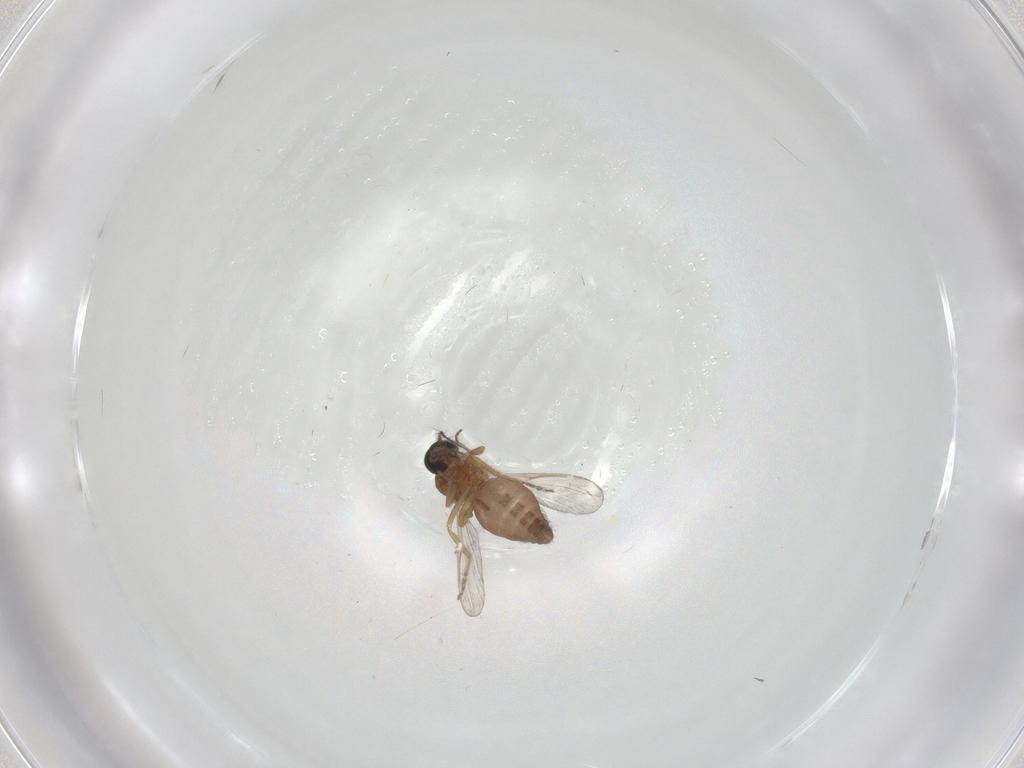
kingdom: Animalia
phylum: Arthropoda
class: Insecta
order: Diptera
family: Ceratopogonidae
